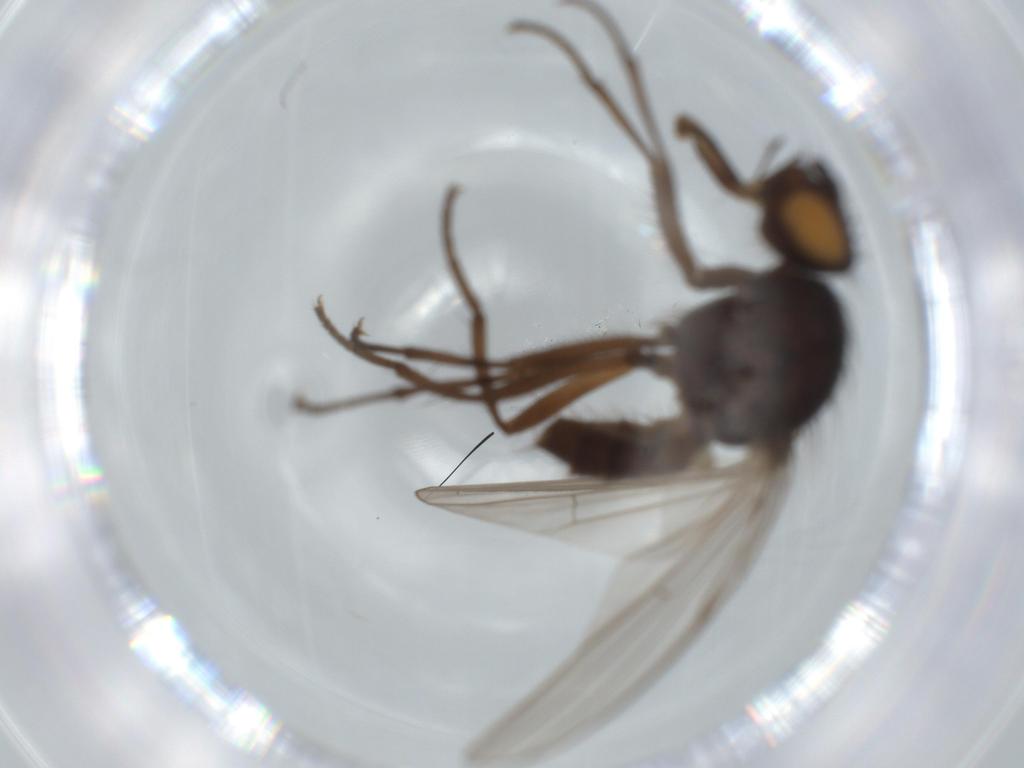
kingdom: Animalia
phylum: Arthropoda
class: Insecta
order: Diptera
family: Anthomyiidae
